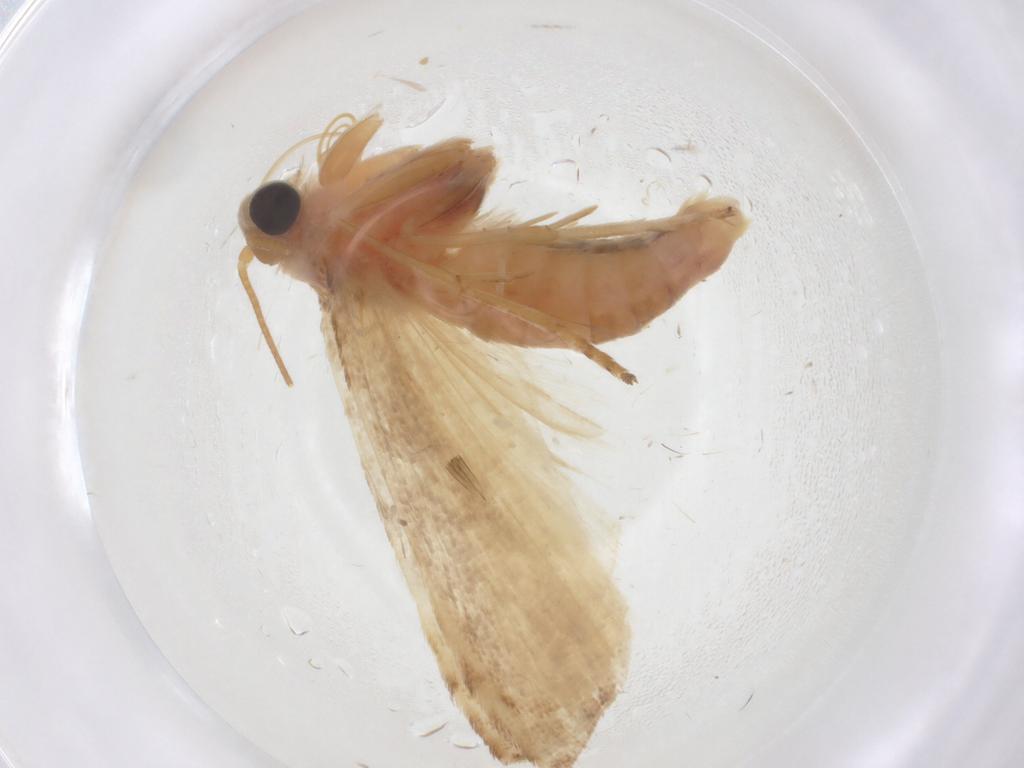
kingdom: Animalia
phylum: Arthropoda
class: Insecta
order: Lepidoptera
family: Pyralidae
